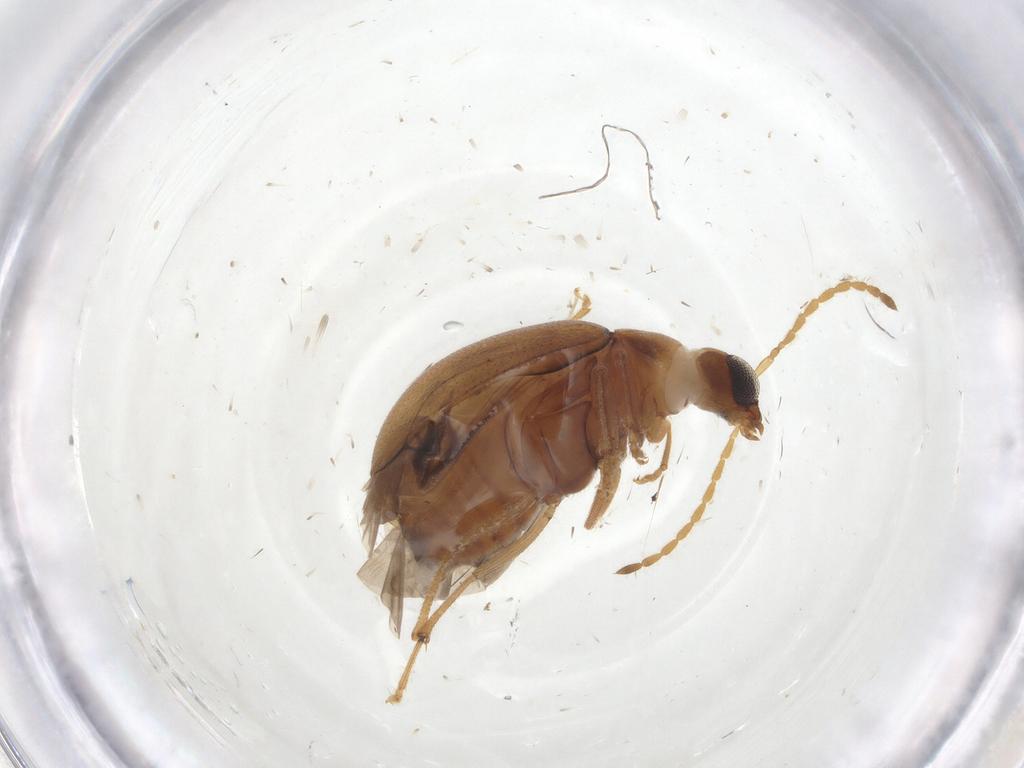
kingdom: Animalia
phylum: Arthropoda
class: Insecta
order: Coleoptera
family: Chrysomelidae
